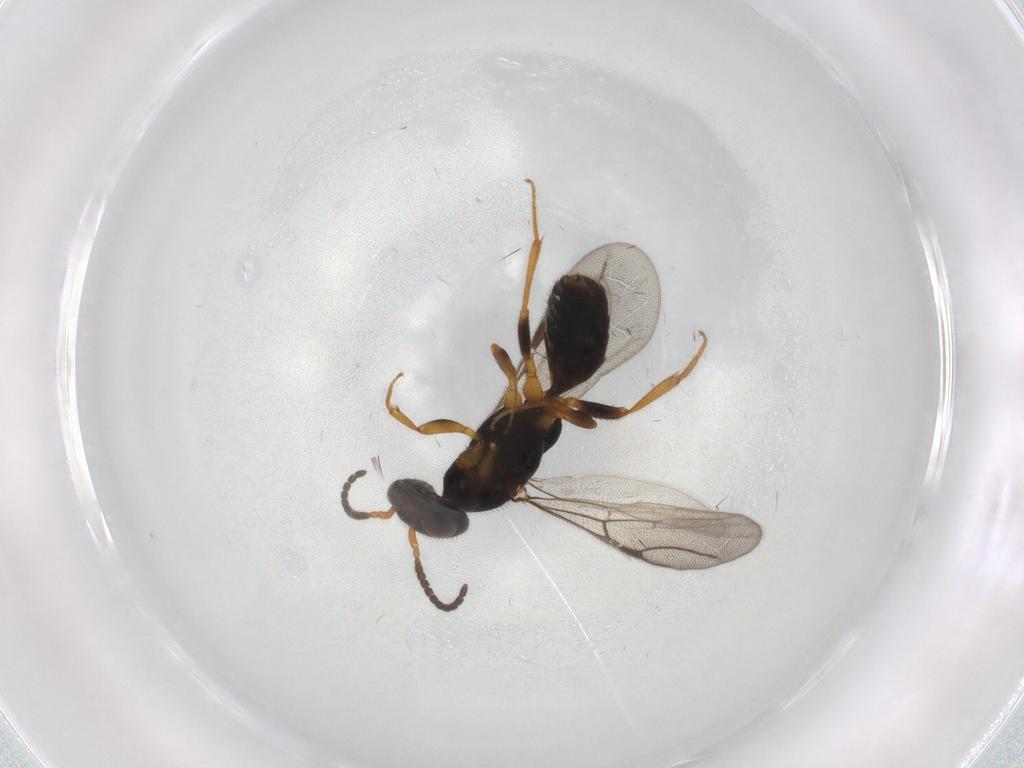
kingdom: Animalia
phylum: Arthropoda
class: Insecta
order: Hymenoptera
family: Bethylidae
